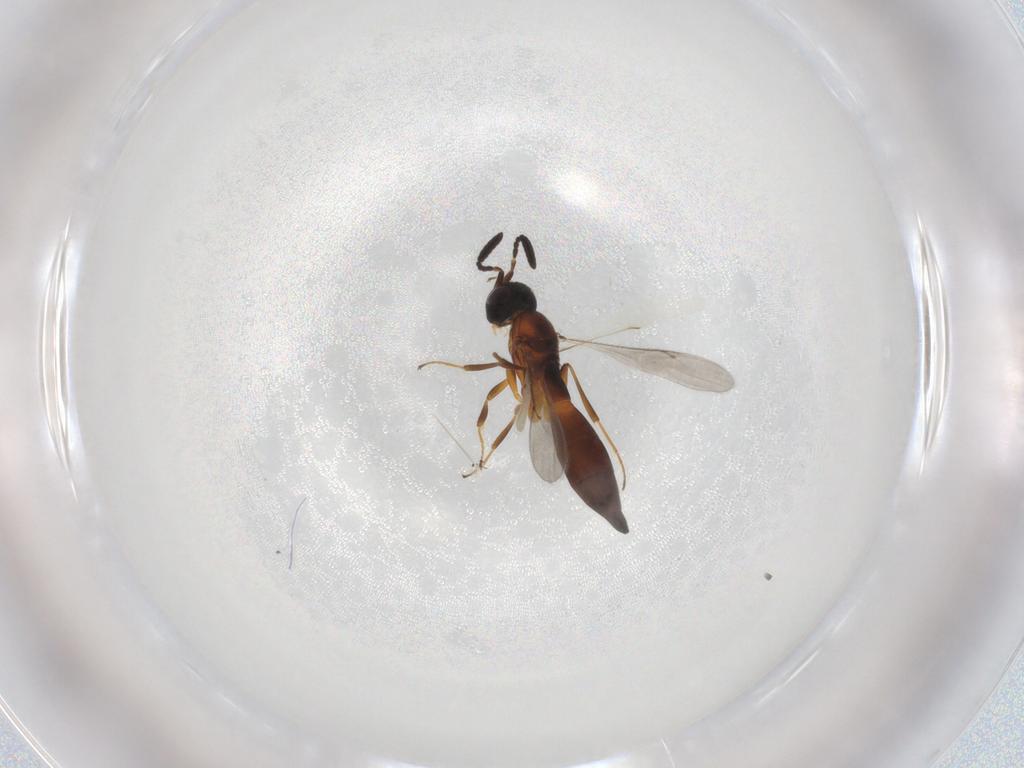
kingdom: Animalia
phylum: Arthropoda
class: Insecta
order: Hymenoptera
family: Scelionidae
